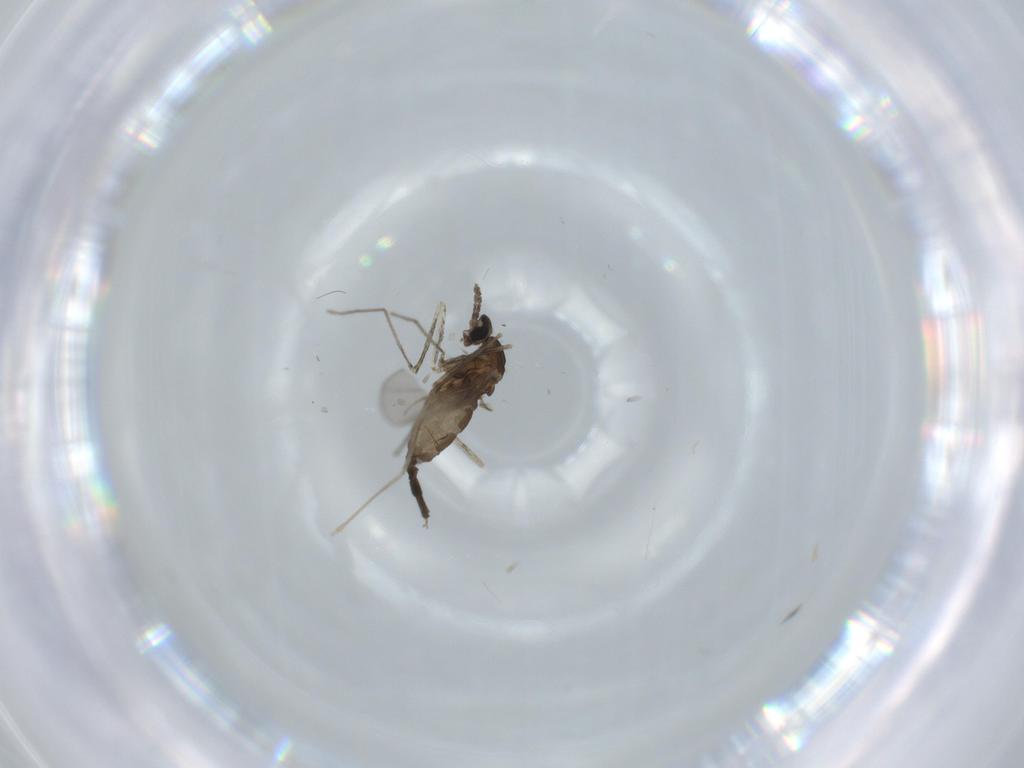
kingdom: Animalia
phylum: Arthropoda
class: Insecta
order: Diptera
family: Cecidomyiidae
